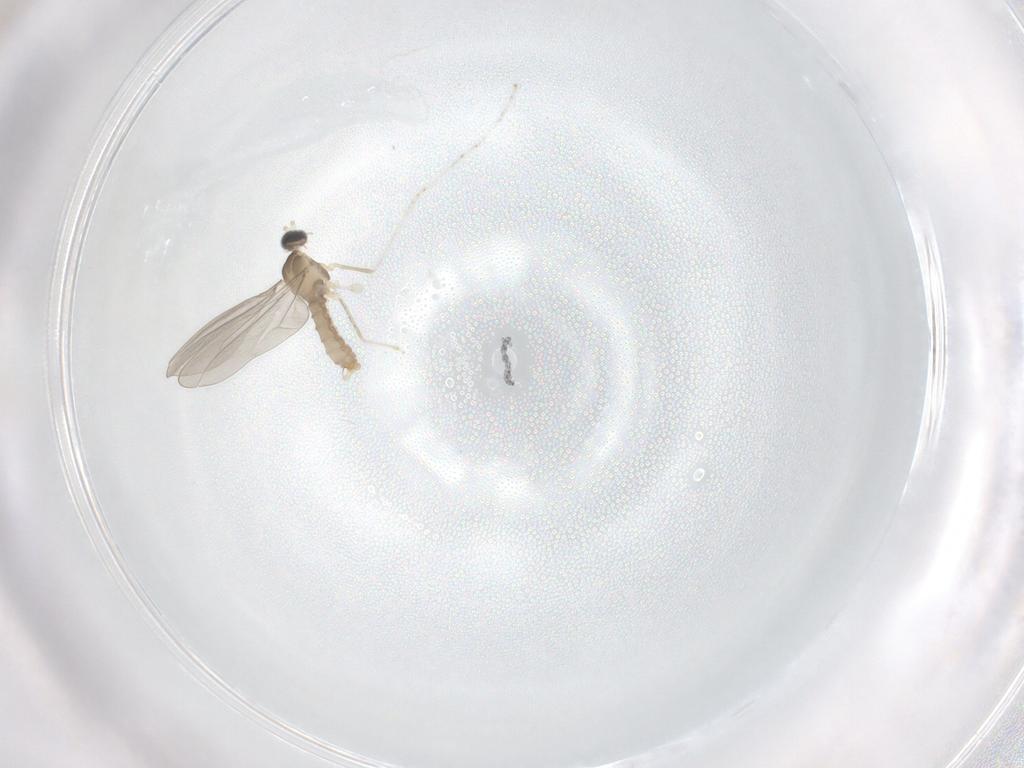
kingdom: Animalia
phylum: Arthropoda
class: Insecta
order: Diptera
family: Cecidomyiidae
